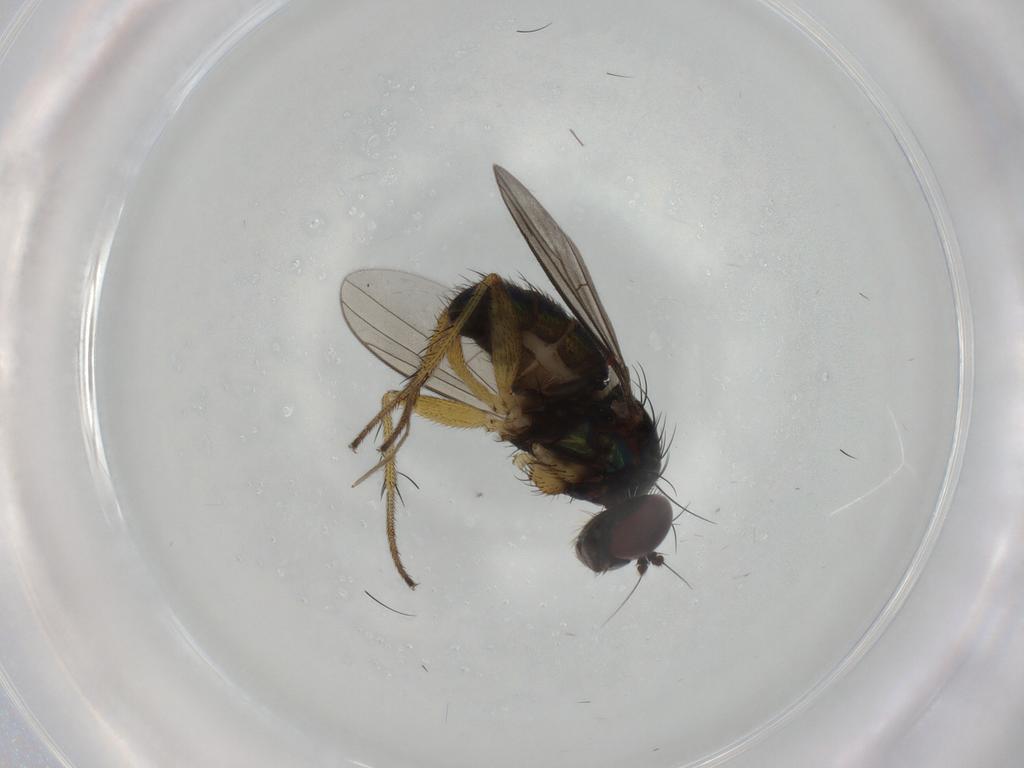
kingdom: Animalia
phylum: Arthropoda
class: Insecta
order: Diptera
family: Dolichopodidae
